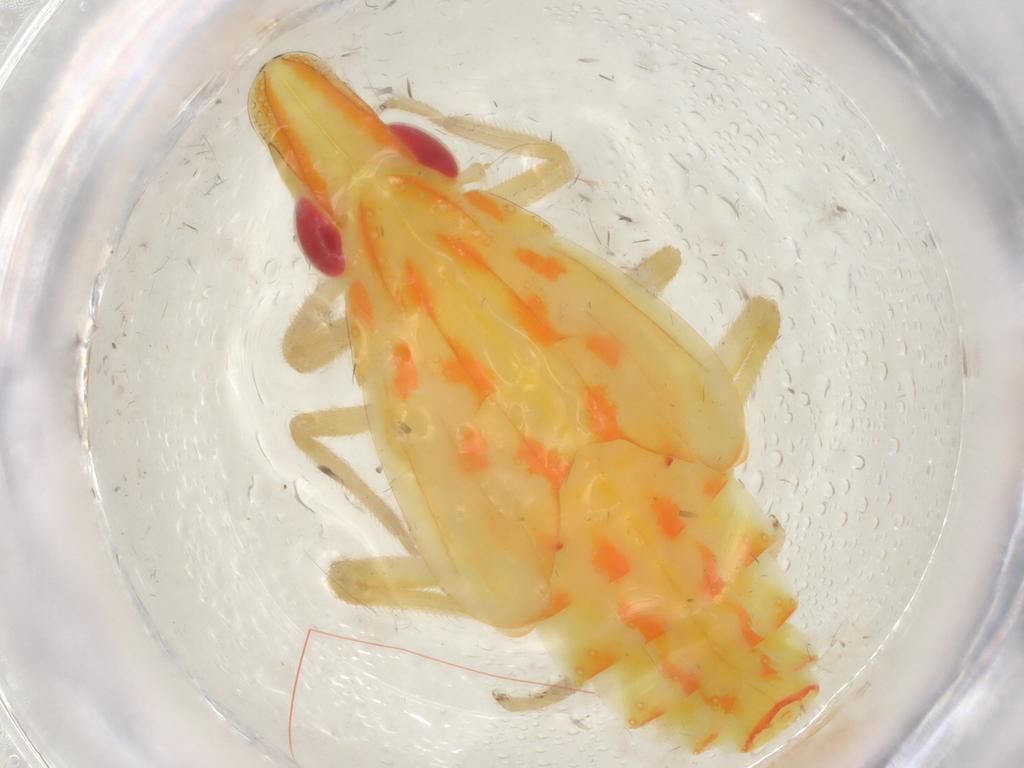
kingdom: Animalia
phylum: Arthropoda
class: Insecta
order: Hemiptera
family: Tropiduchidae
